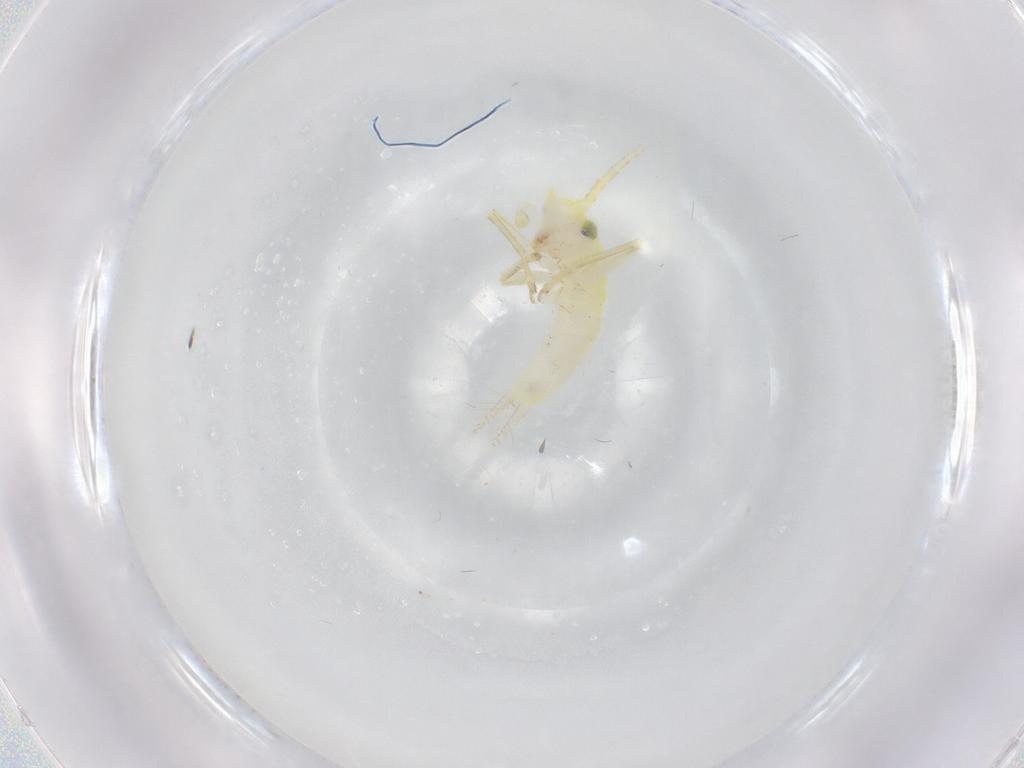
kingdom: Animalia
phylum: Arthropoda
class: Insecta
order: Orthoptera
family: Trigonidiidae
